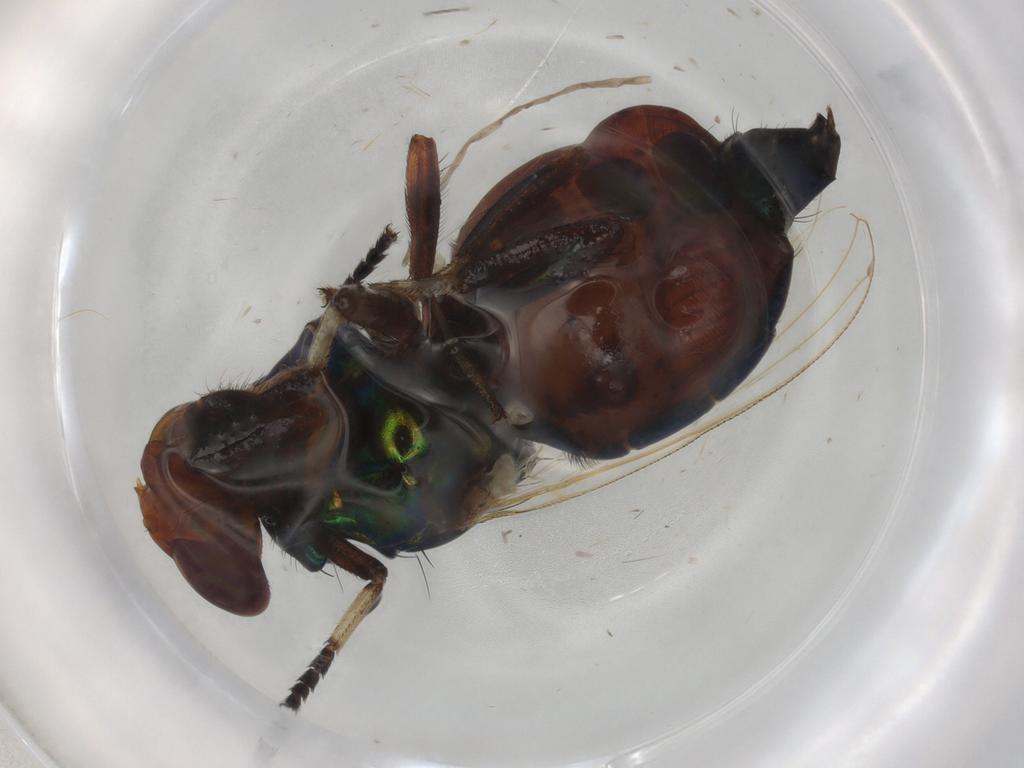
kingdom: Animalia
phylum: Arthropoda
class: Insecta
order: Diptera
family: Ulidiidae
